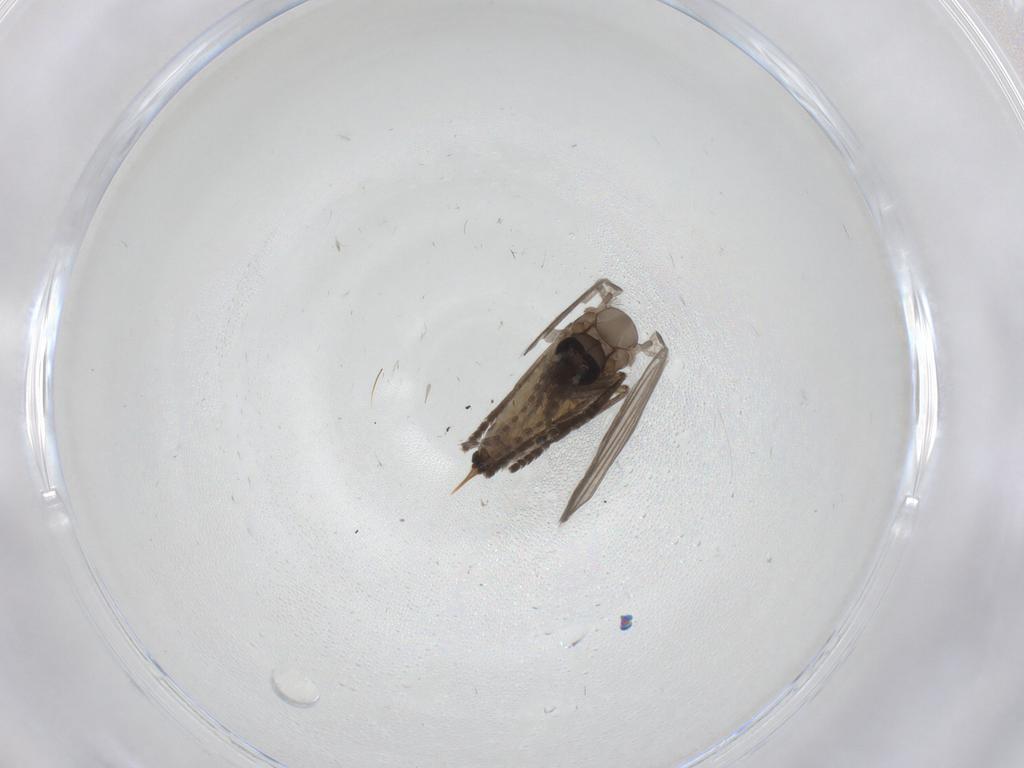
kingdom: Animalia
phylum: Arthropoda
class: Insecta
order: Diptera
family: Psychodidae
